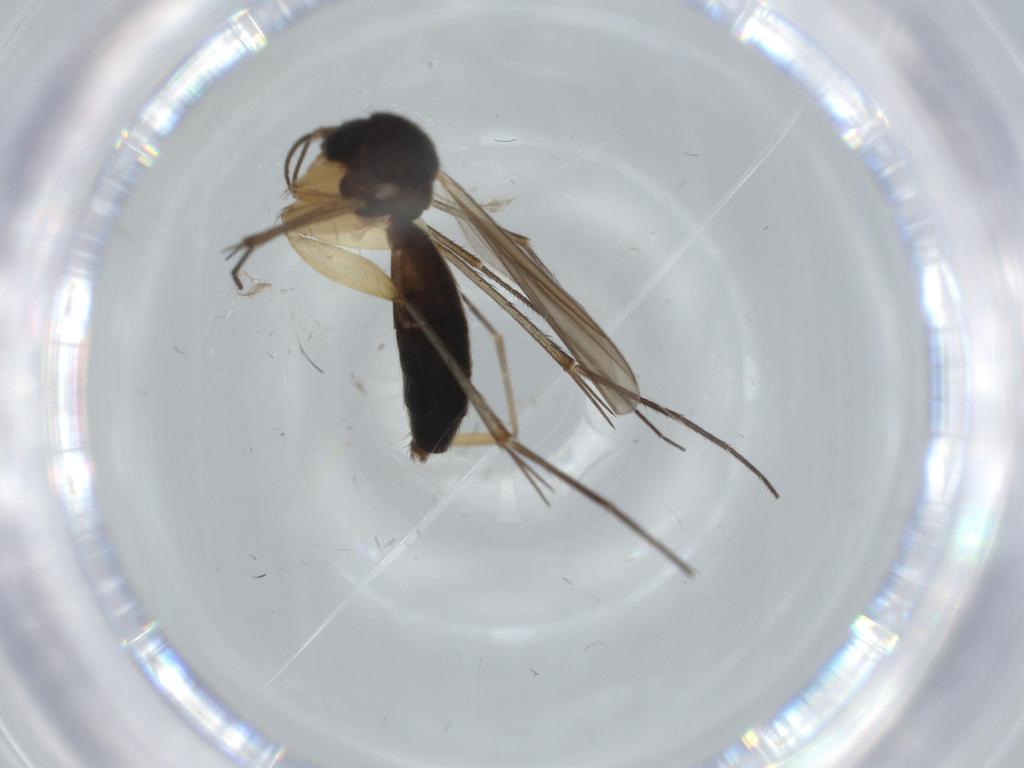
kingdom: Animalia
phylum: Arthropoda
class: Insecta
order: Diptera
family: Mycetophilidae
